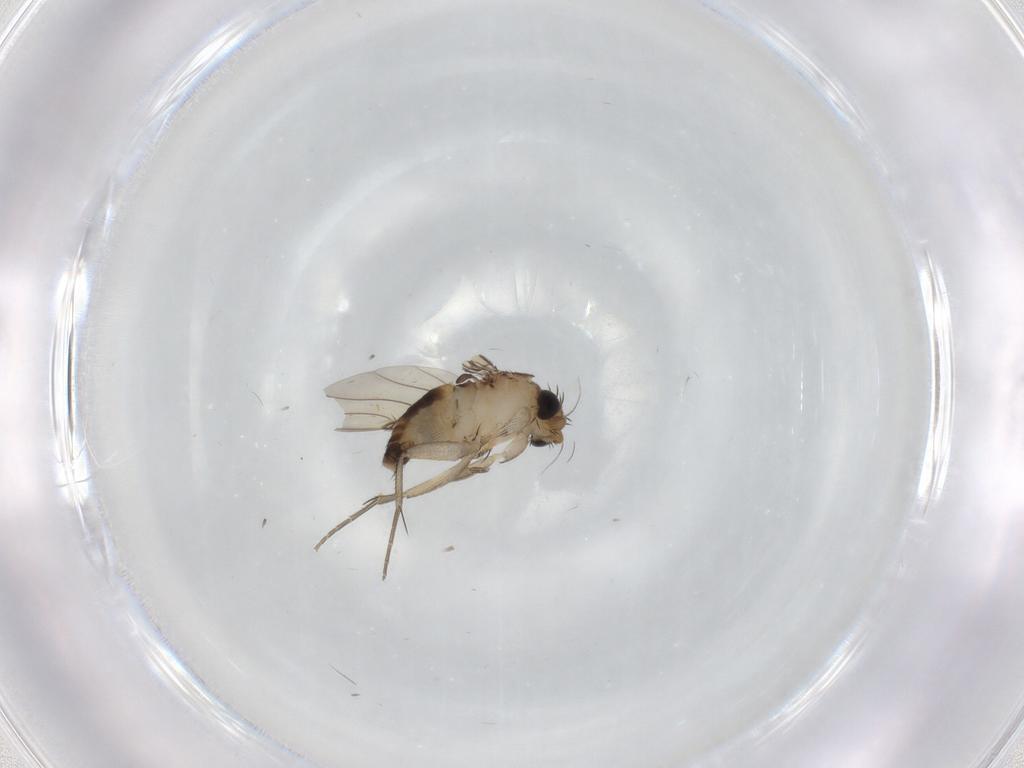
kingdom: Animalia
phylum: Arthropoda
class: Insecta
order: Diptera
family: Phoridae
